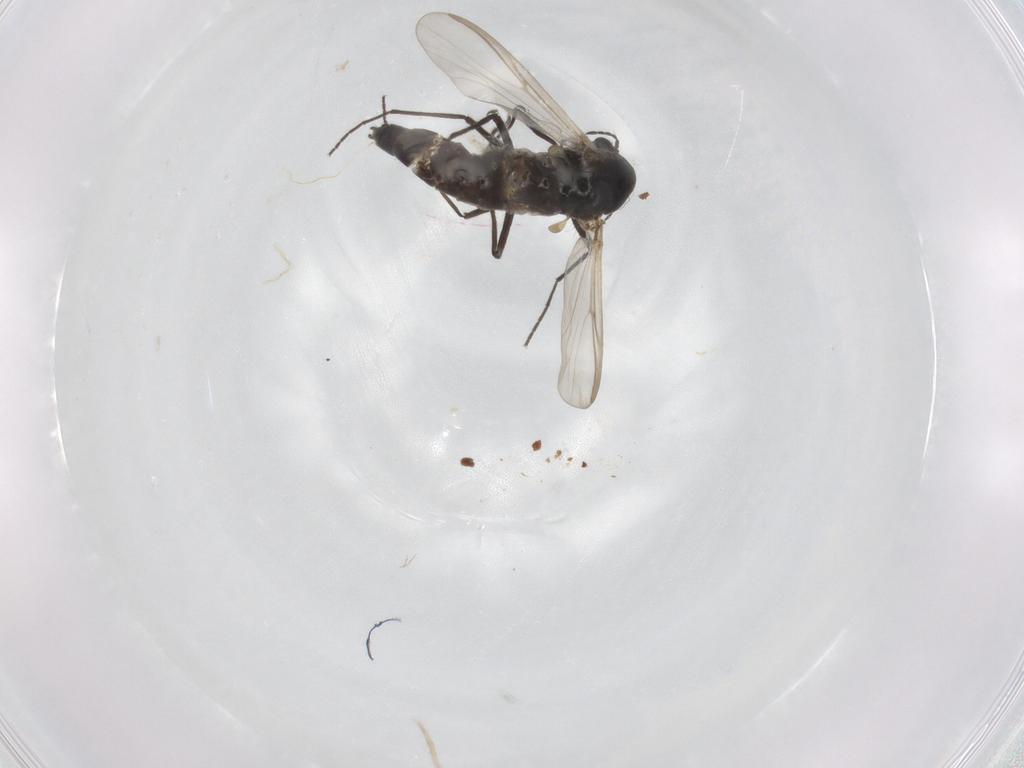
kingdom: Animalia
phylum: Arthropoda
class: Insecta
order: Diptera
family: Chironomidae
